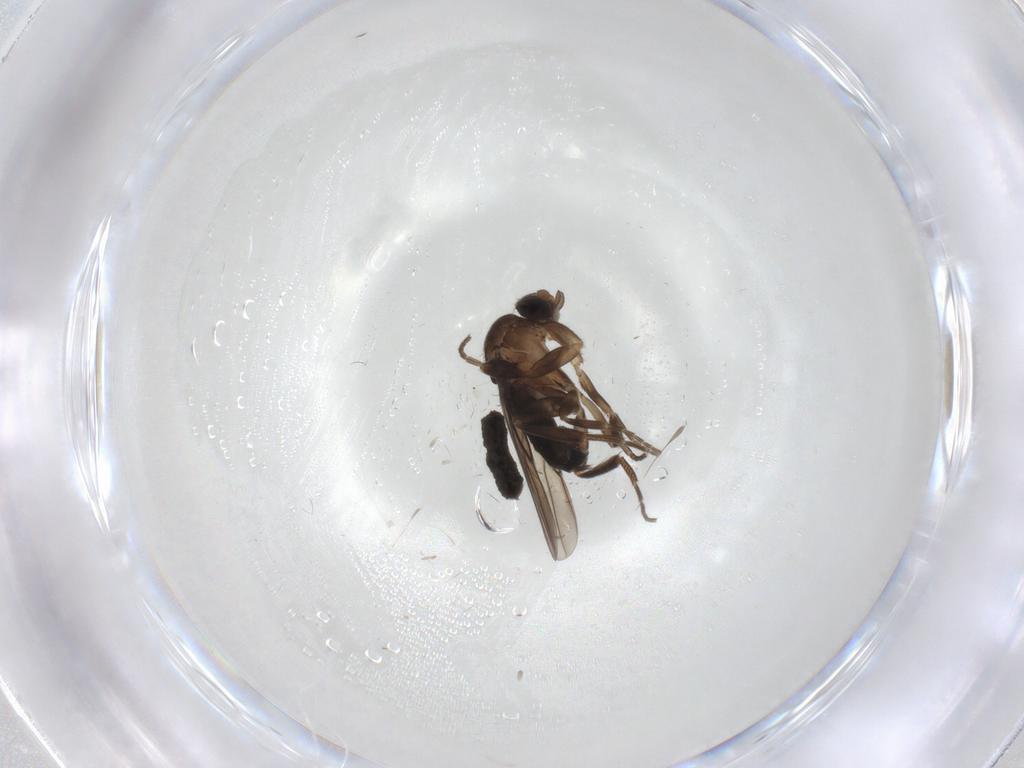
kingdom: Animalia
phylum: Arthropoda
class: Insecta
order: Diptera
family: Phoridae
